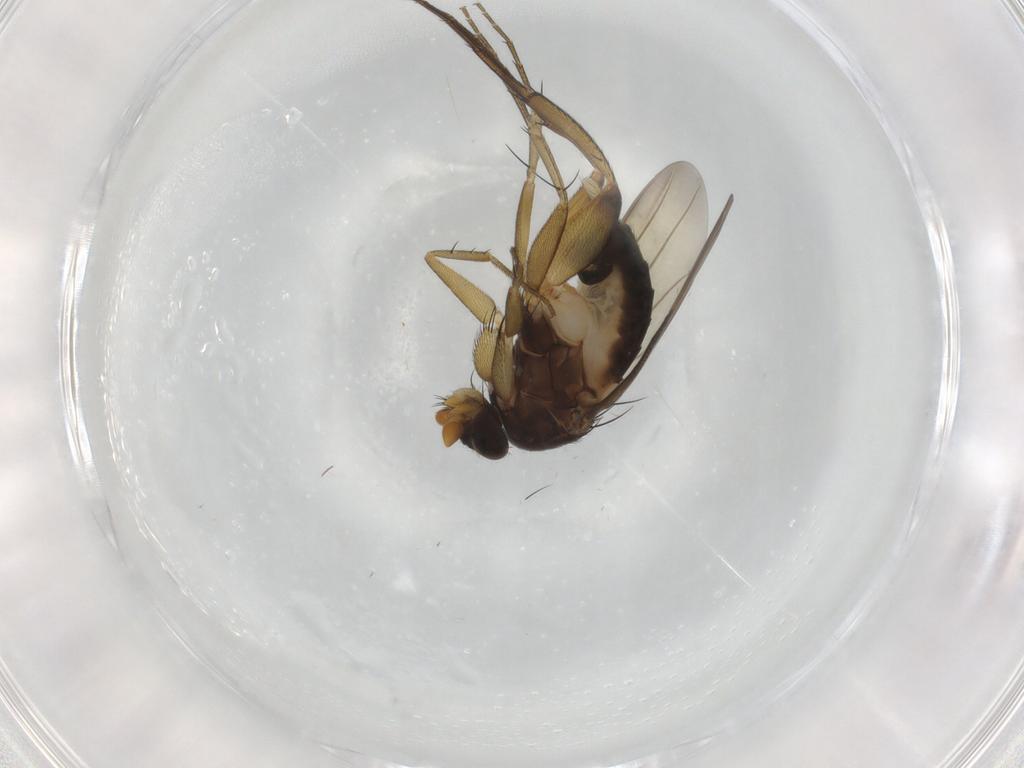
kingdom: Animalia
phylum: Arthropoda
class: Insecta
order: Diptera
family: Phoridae
